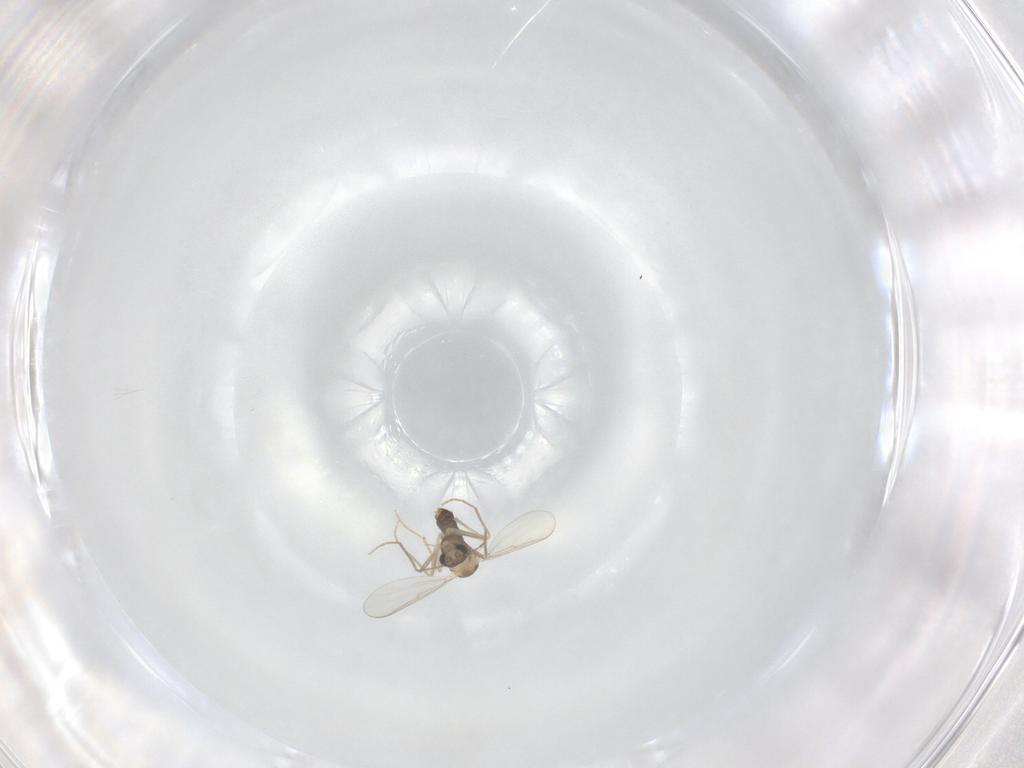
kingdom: Animalia
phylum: Arthropoda
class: Insecta
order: Diptera
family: Chironomidae
